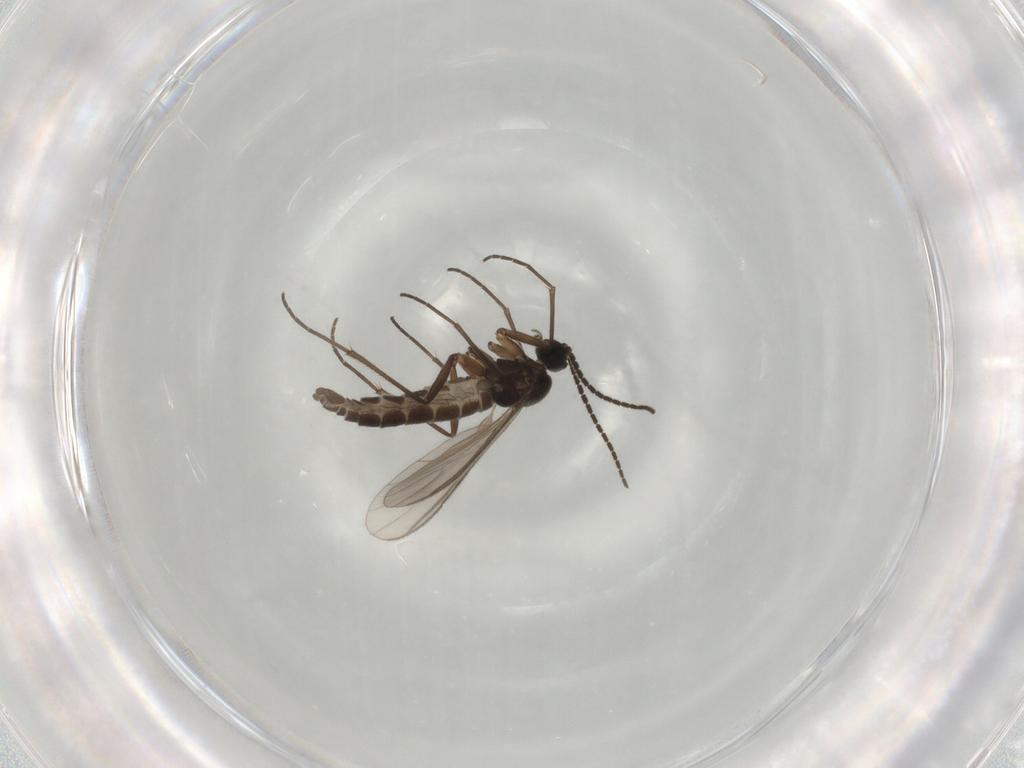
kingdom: Animalia
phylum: Arthropoda
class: Insecta
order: Diptera
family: Sciaridae
